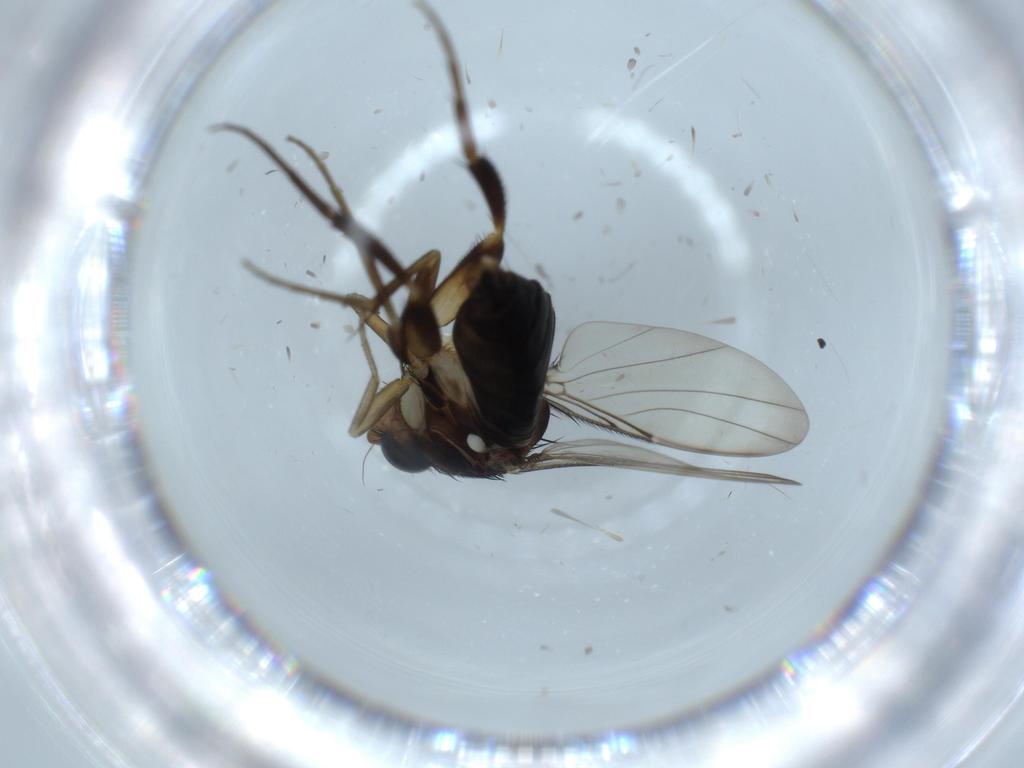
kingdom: Animalia
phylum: Arthropoda
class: Insecta
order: Diptera
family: Phoridae
